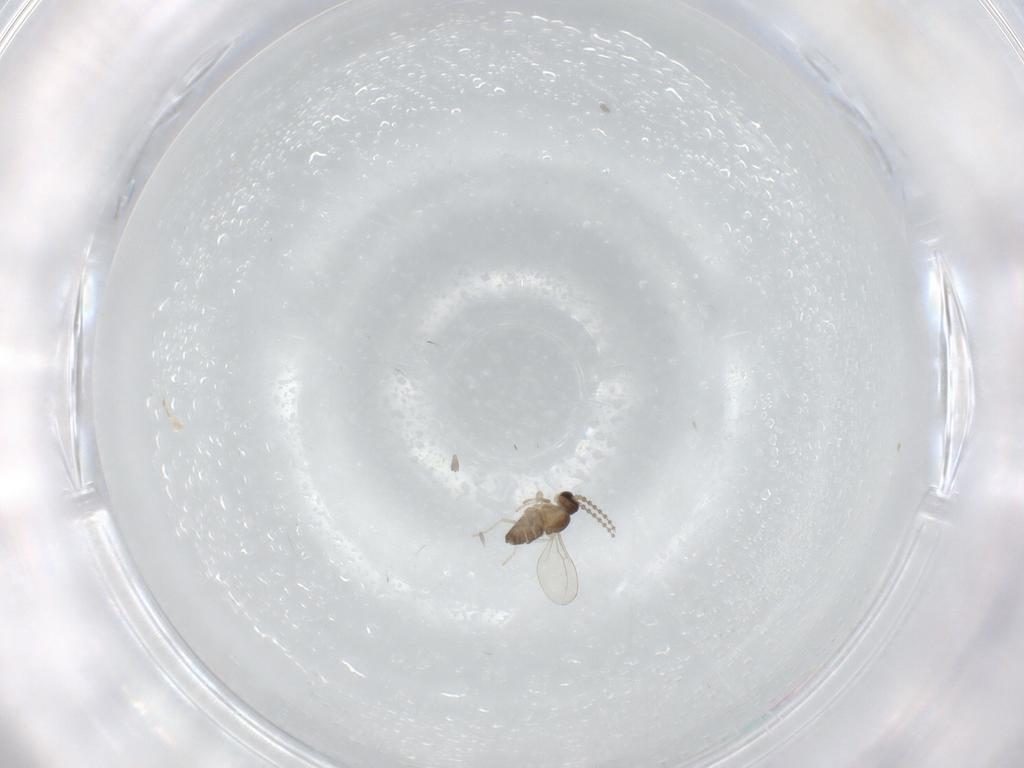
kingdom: Animalia
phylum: Arthropoda
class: Insecta
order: Diptera
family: Cecidomyiidae
